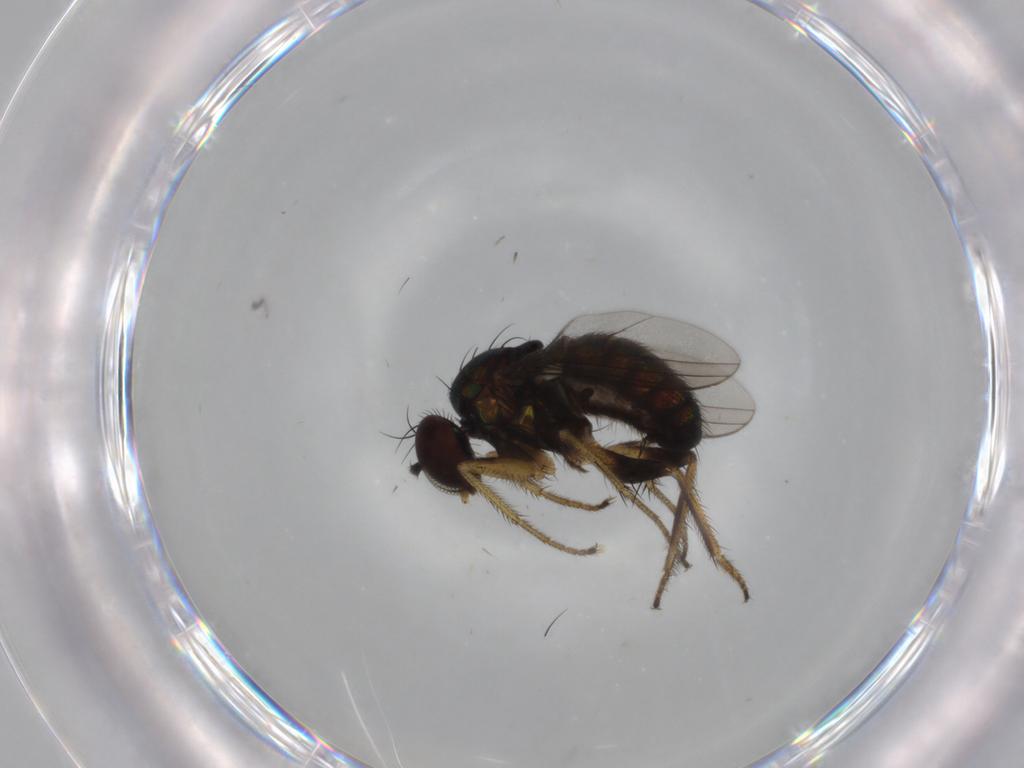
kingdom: Animalia
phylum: Arthropoda
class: Insecta
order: Diptera
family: Dolichopodidae
